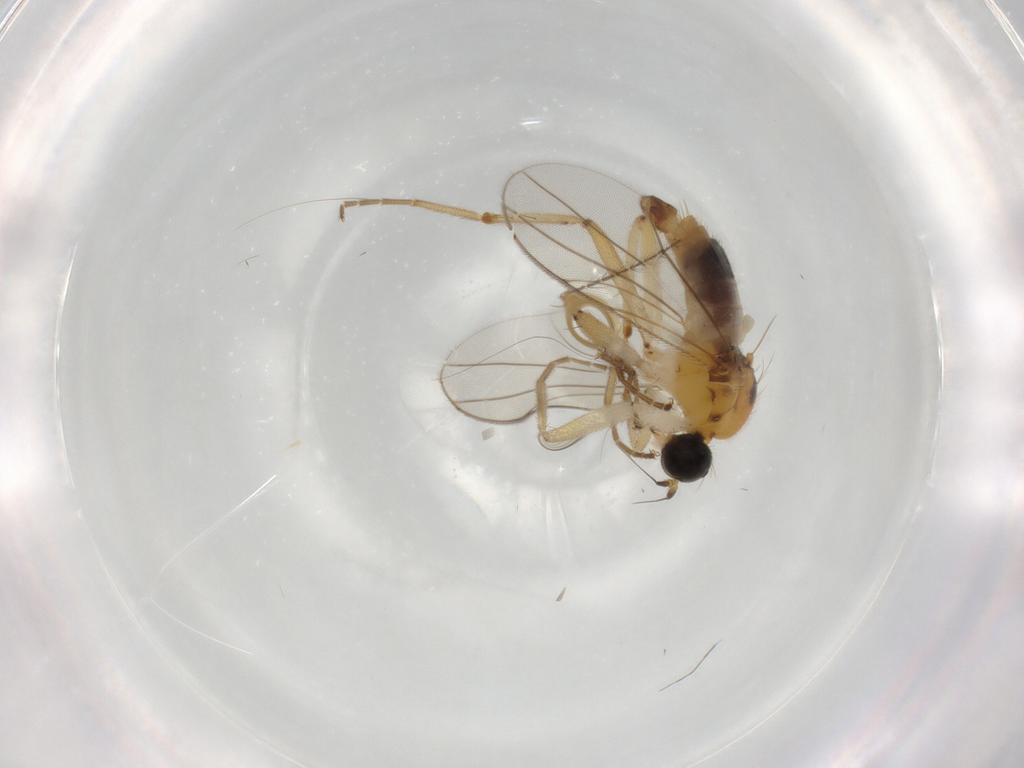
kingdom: Animalia
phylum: Arthropoda
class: Insecta
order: Diptera
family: Hybotidae
